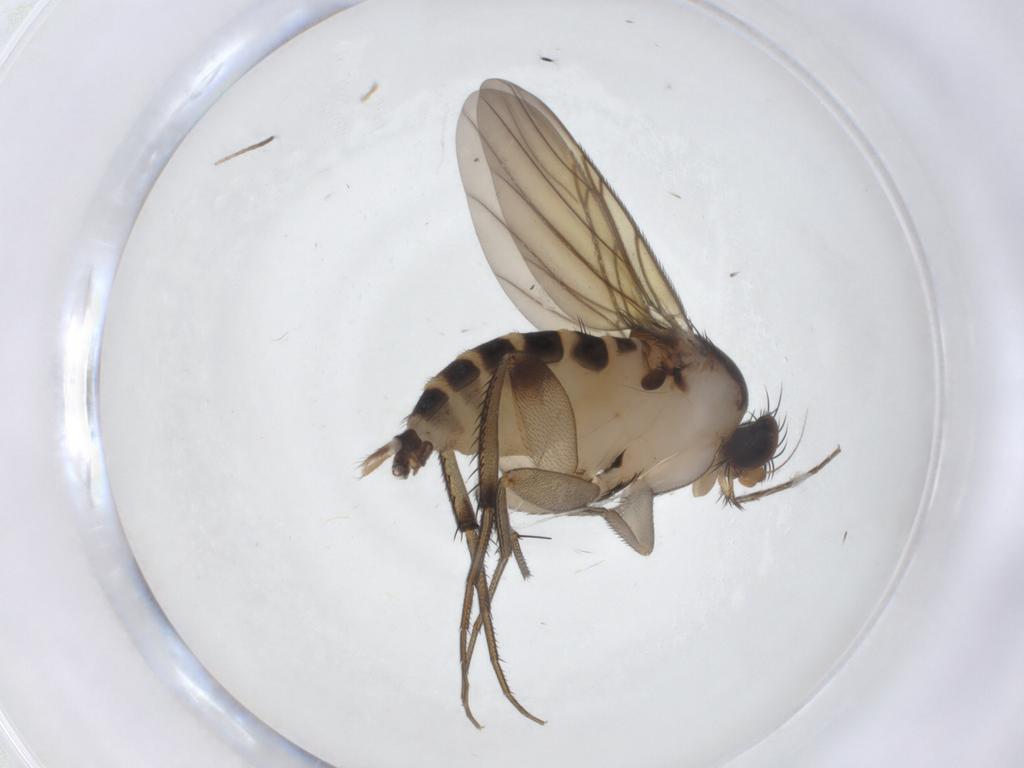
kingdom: Animalia
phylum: Arthropoda
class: Insecta
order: Diptera
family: Phoridae
